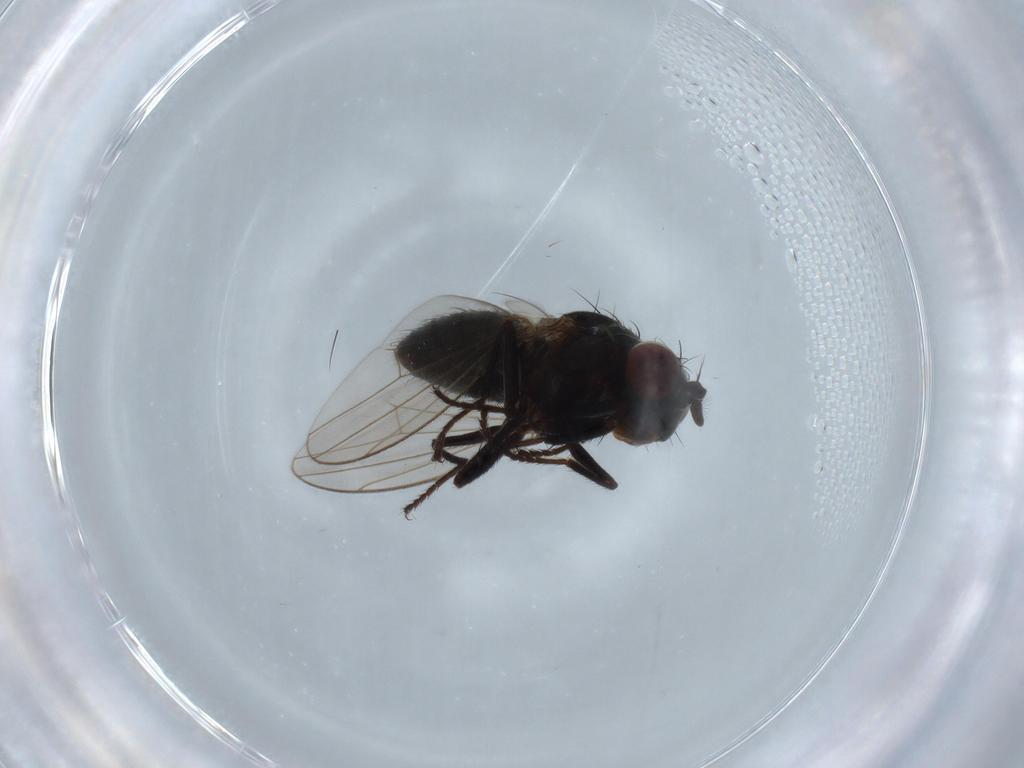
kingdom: Animalia
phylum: Arthropoda
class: Insecta
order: Diptera
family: Ephydridae
